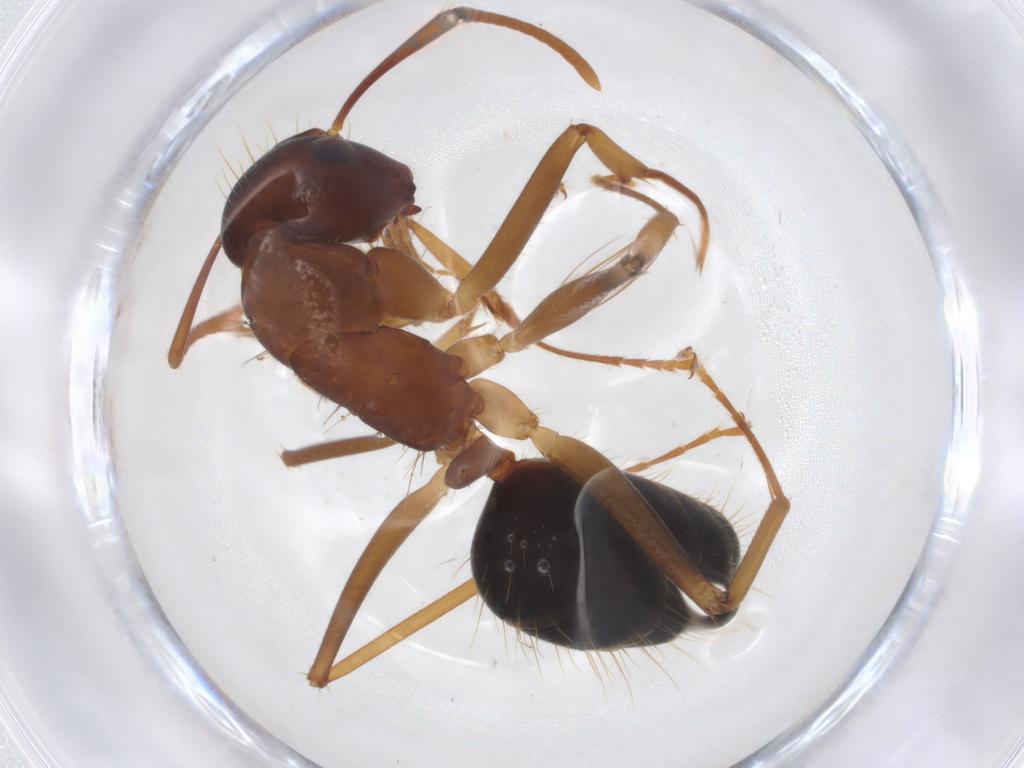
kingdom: Animalia
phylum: Arthropoda
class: Insecta
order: Hymenoptera
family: Formicidae
